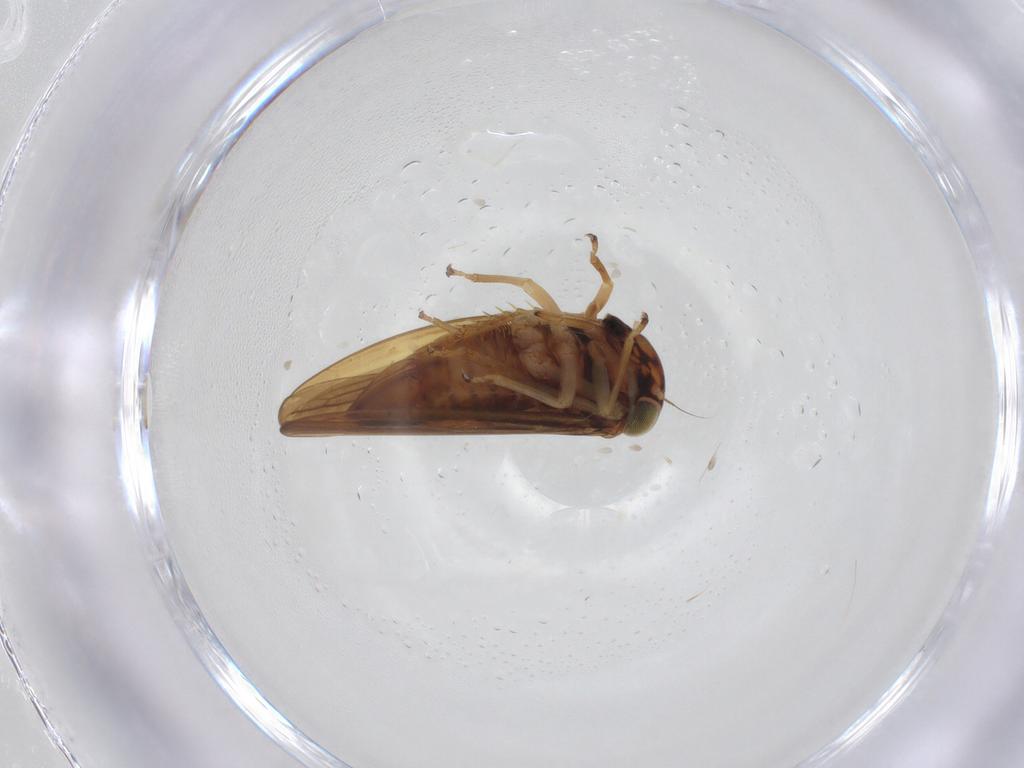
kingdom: Animalia
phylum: Arthropoda
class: Insecta
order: Hemiptera
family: Cicadellidae
